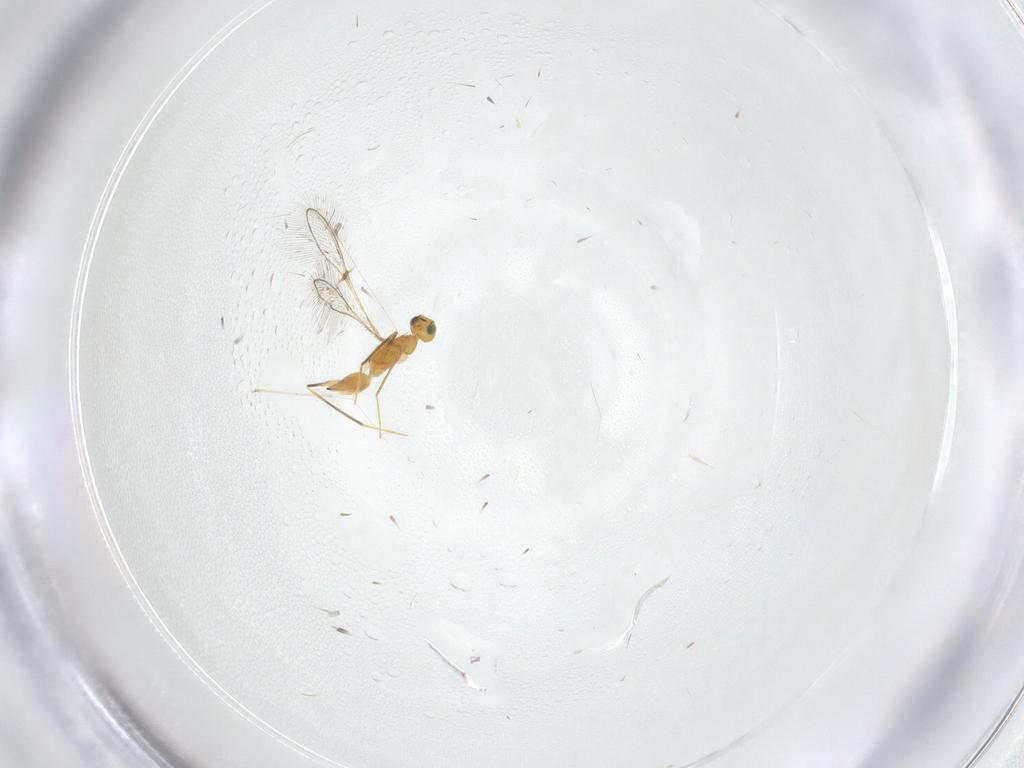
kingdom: Animalia
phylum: Arthropoda
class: Insecta
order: Hymenoptera
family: Mymaridae
